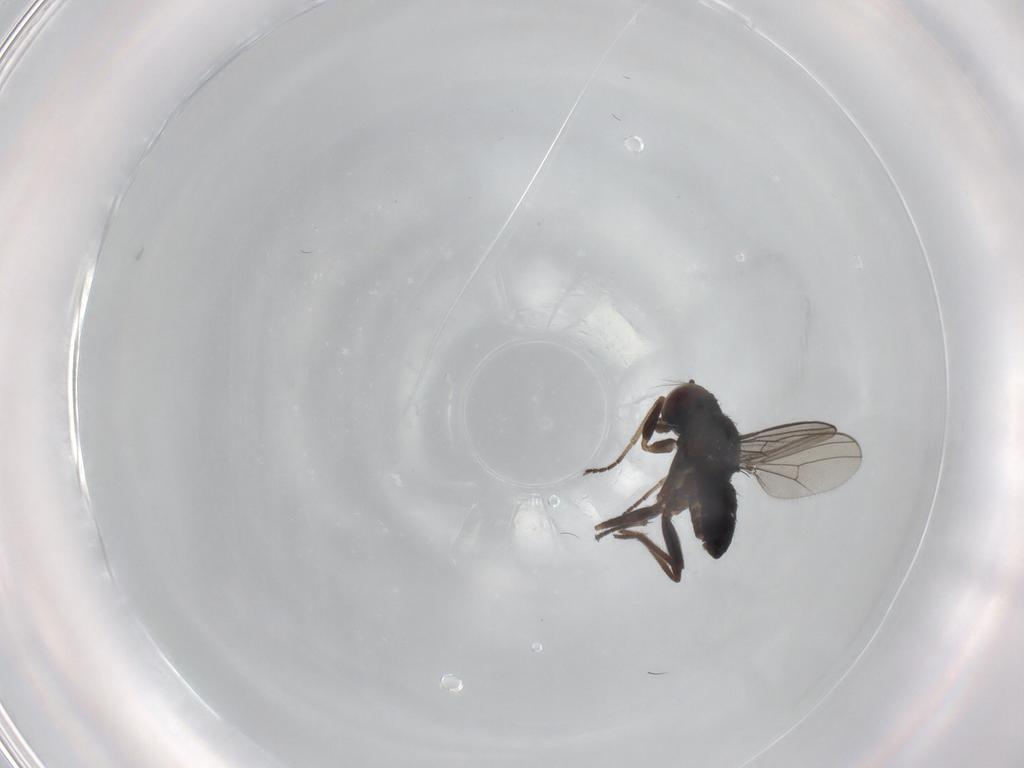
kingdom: Animalia
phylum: Arthropoda
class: Insecta
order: Diptera
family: Dolichopodidae
